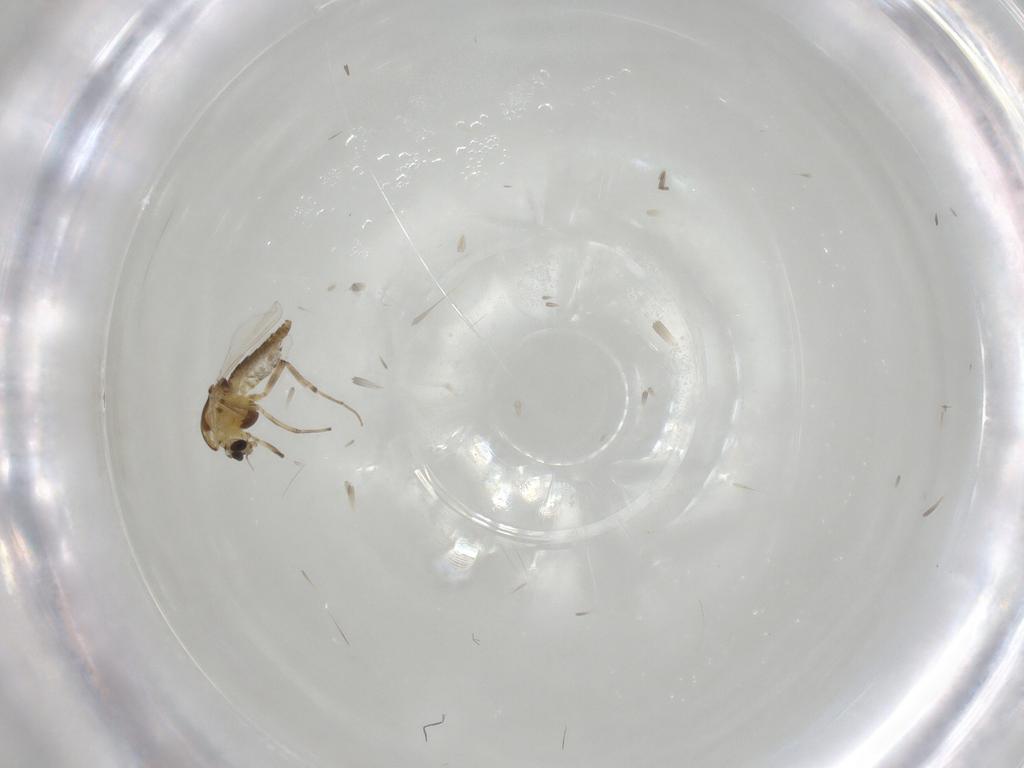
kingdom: Animalia
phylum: Arthropoda
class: Insecta
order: Diptera
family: Chironomidae
